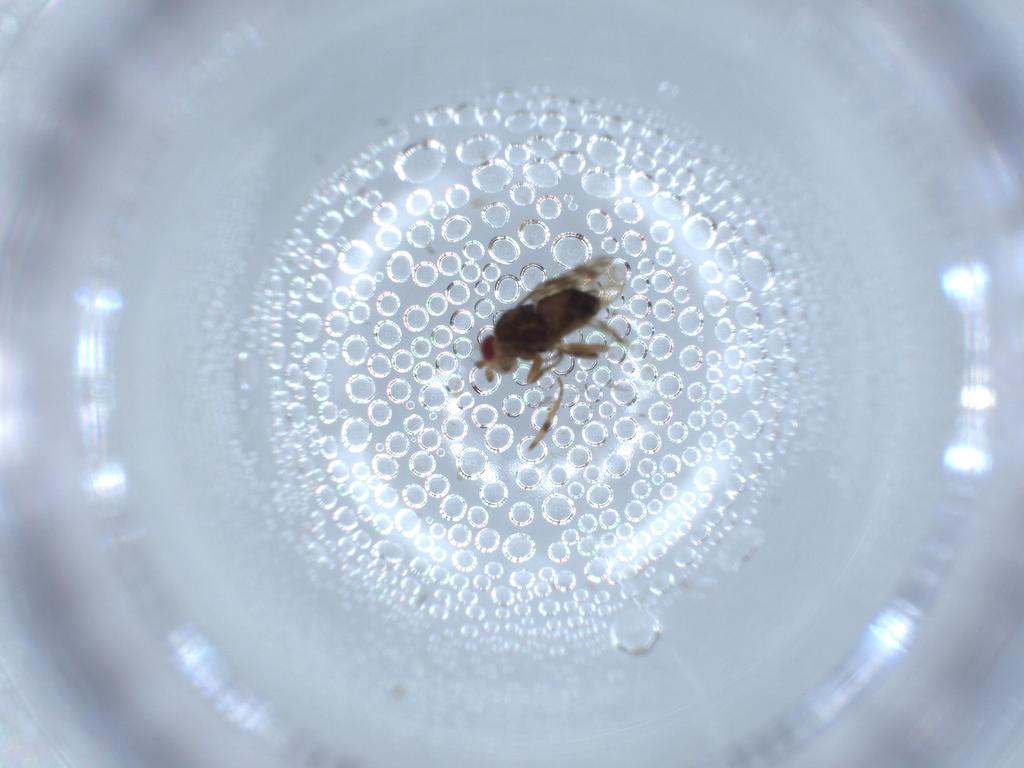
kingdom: Animalia
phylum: Arthropoda
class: Insecta
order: Diptera
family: Sphaeroceridae
